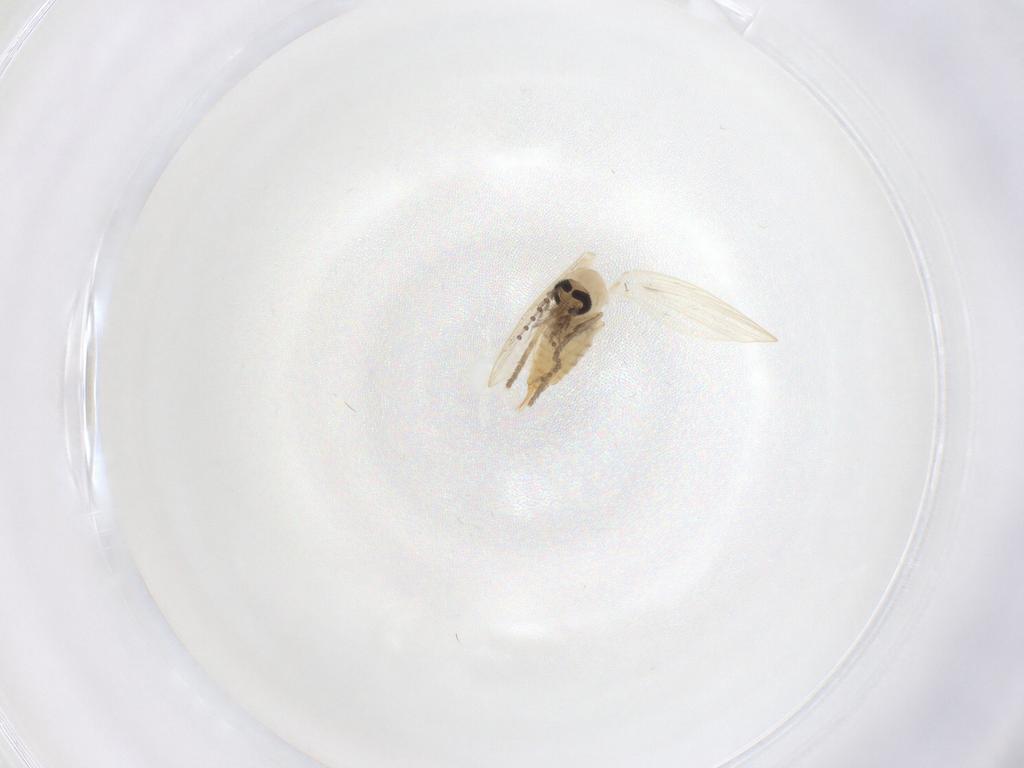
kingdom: Animalia
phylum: Arthropoda
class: Insecta
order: Diptera
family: Psychodidae
